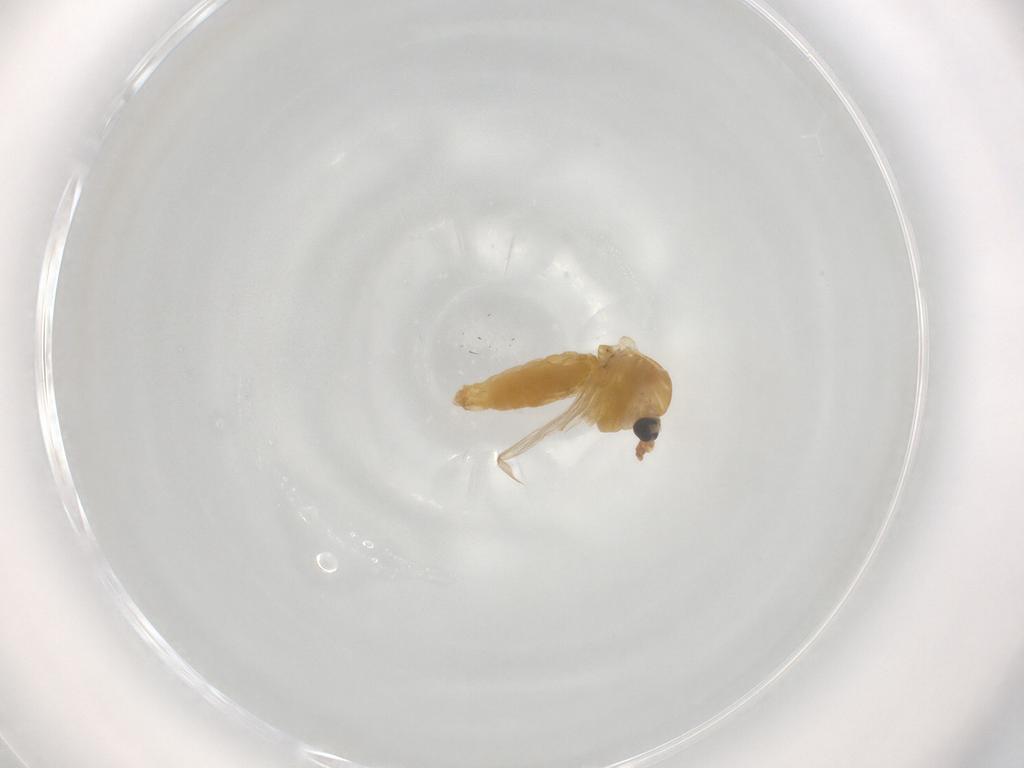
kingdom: Animalia
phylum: Arthropoda
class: Insecta
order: Diptera
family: Chironomidae
